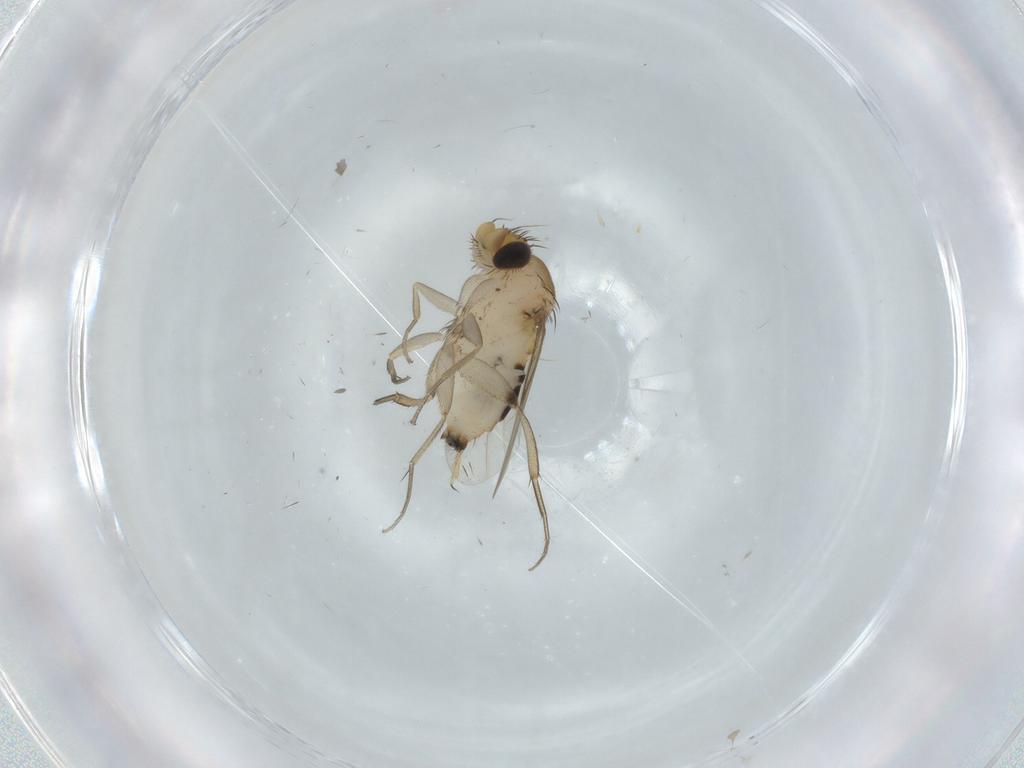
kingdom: Animalia
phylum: Arthropoda
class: Insecta
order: Diptera
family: Phoridae
